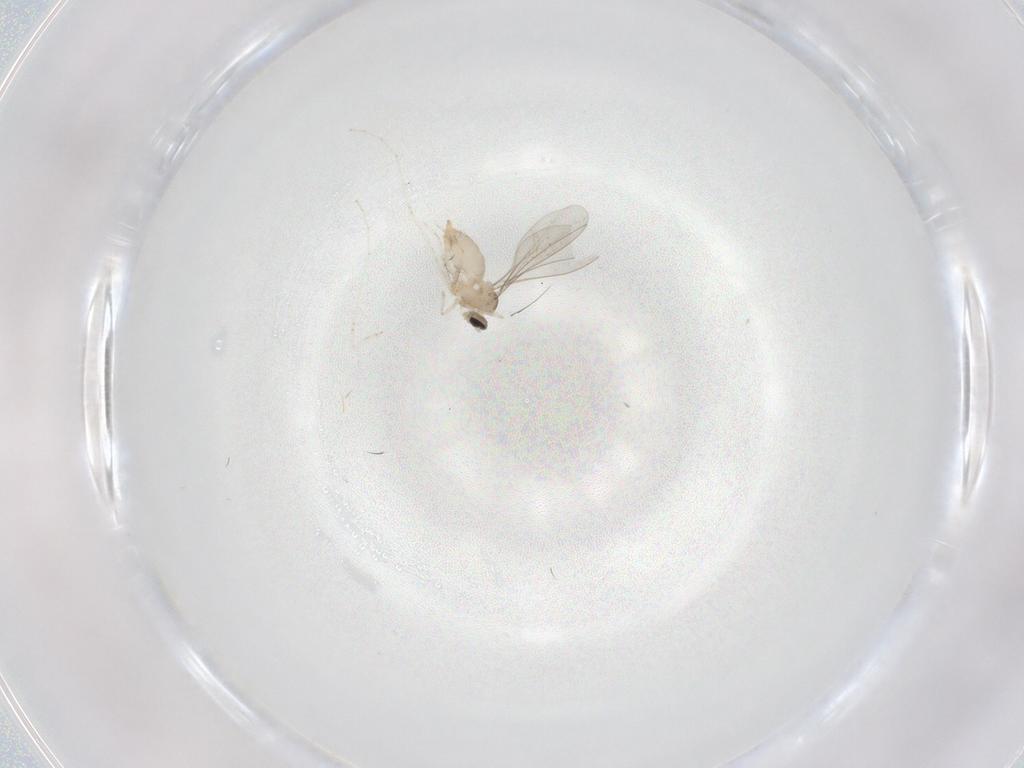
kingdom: Animalia
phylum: Arthropoda
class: Insecta
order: Diptera
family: Cecidomyiidae
